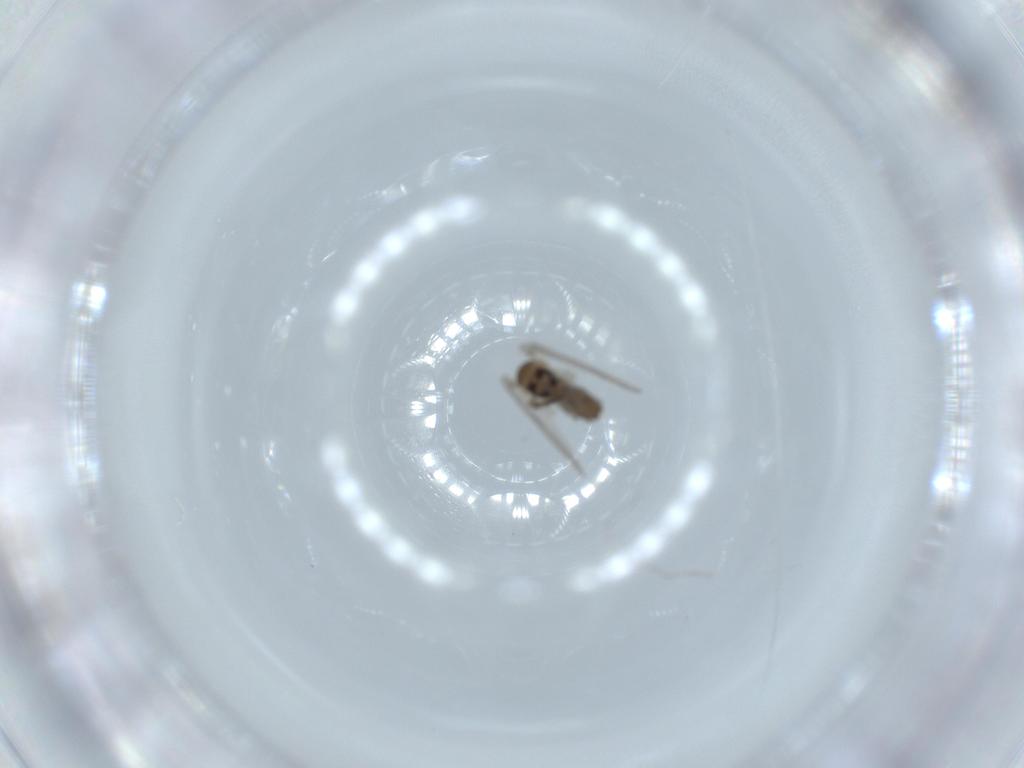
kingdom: Animalia
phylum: Arthropoda
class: Insecta
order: Diptera
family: Chironomidae
